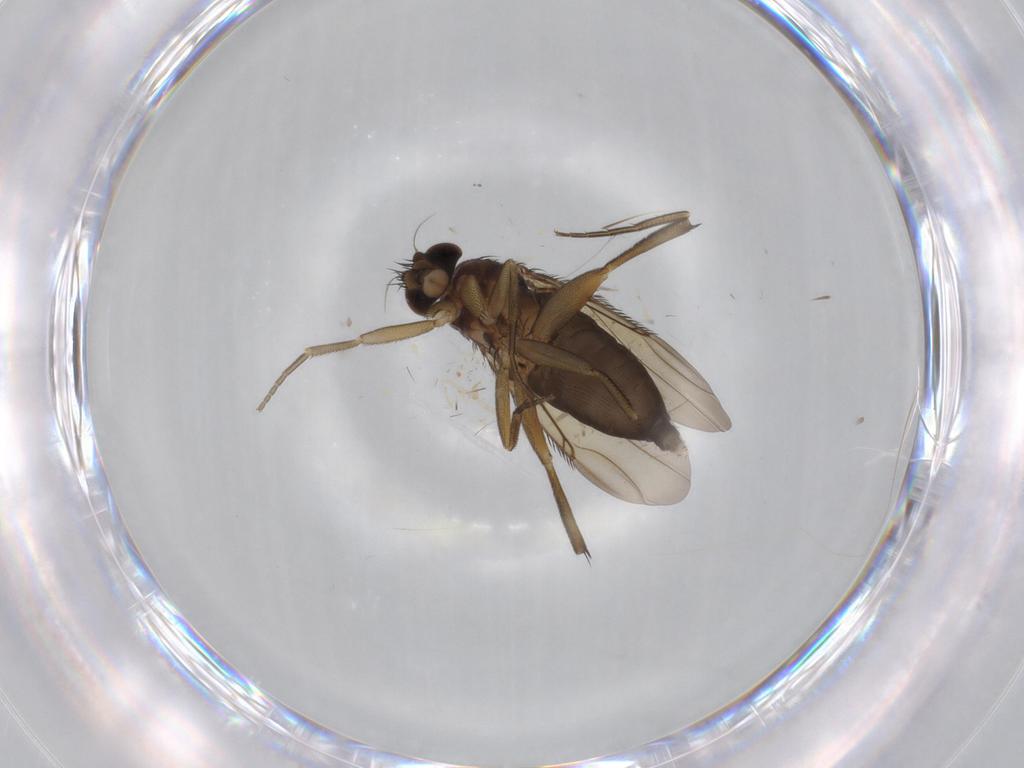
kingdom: Animalia
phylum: Arthropoda
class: Insecta
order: Diptera
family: Phoridae
